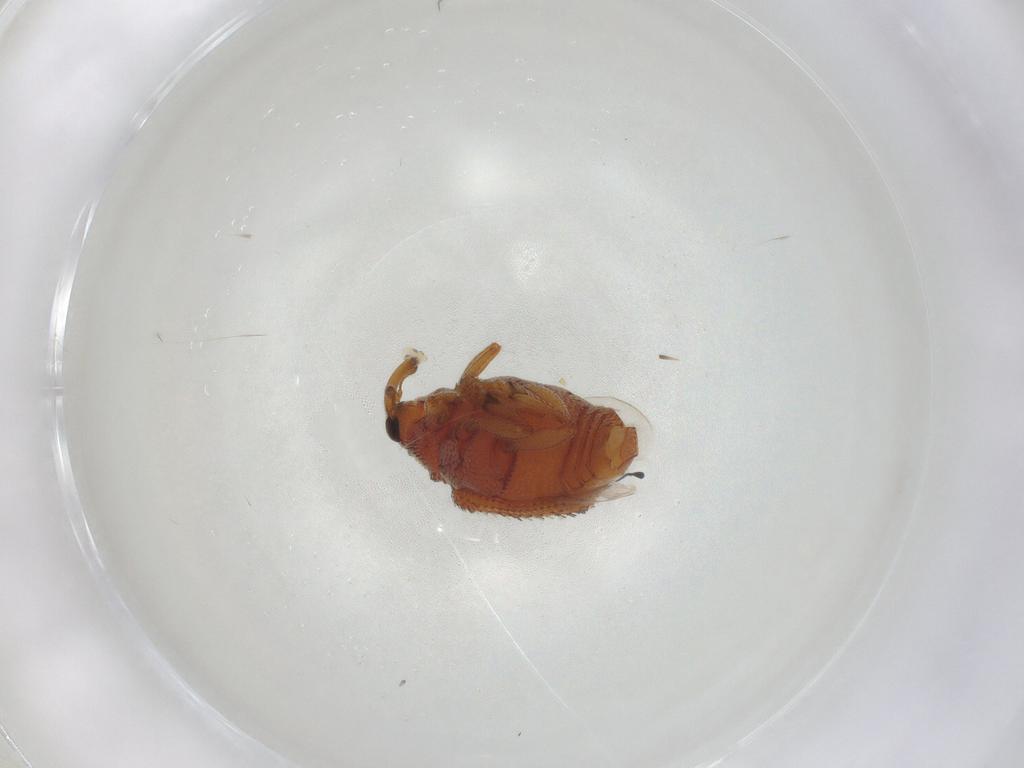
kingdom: Animalia
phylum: Arthropoda
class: Insecta
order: Coleoptera
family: Curculionidae
